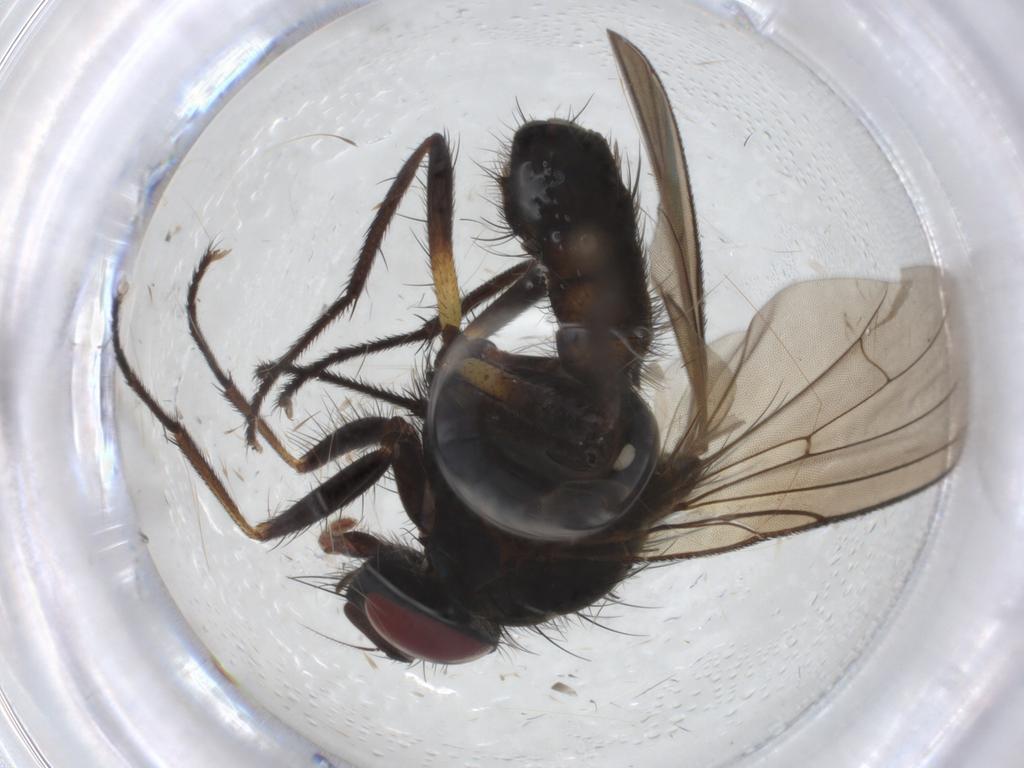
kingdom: Animalia
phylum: Arthropoda
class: Insecta
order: Diptera
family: Anthomyiidae
